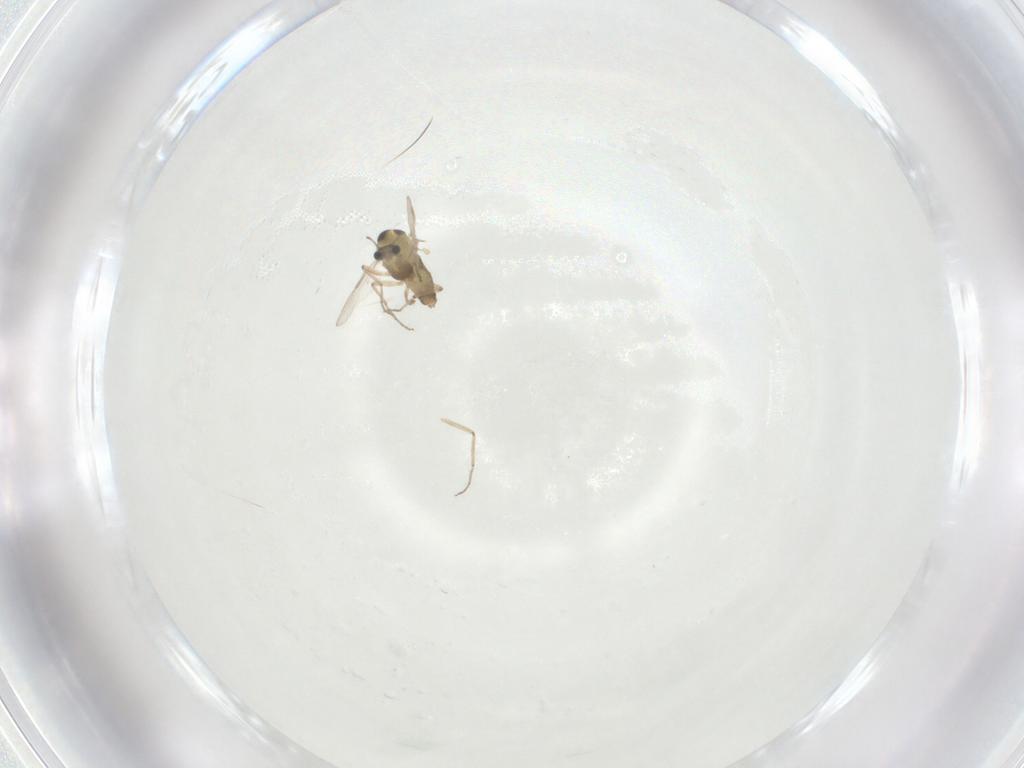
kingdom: Animalia
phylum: Arthropoda
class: Insecta
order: Diptera
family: Chironomidae
